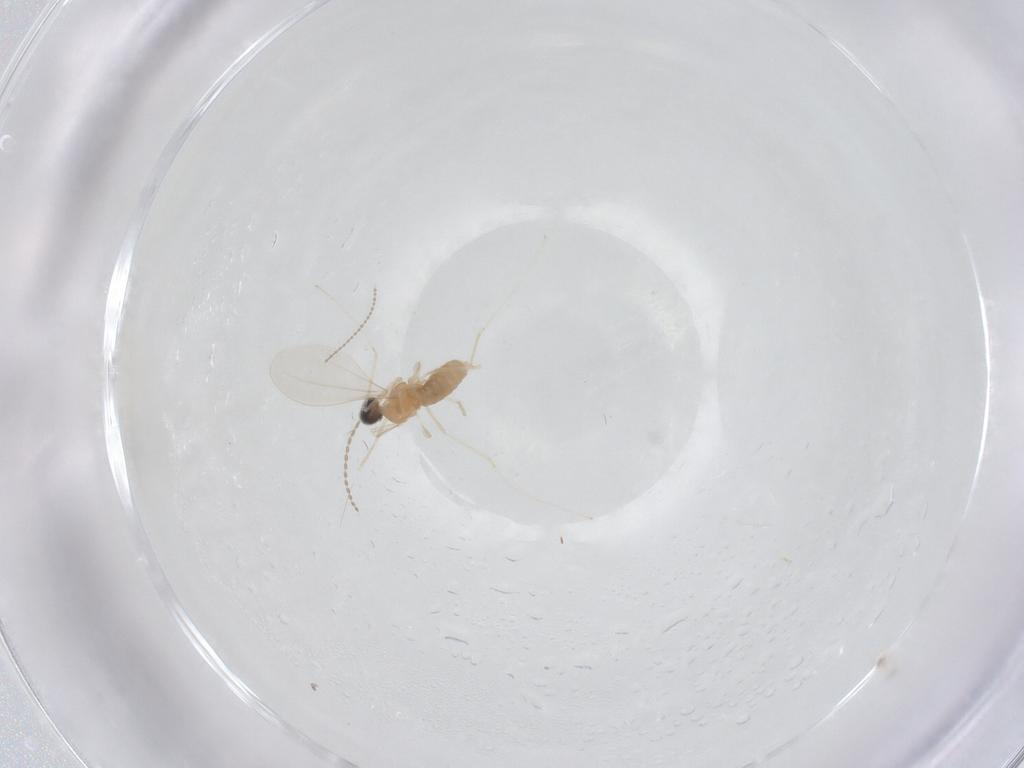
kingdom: Animalia
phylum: Arthropoda
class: Insecta
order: Diptera
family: Cecidomyiidae
